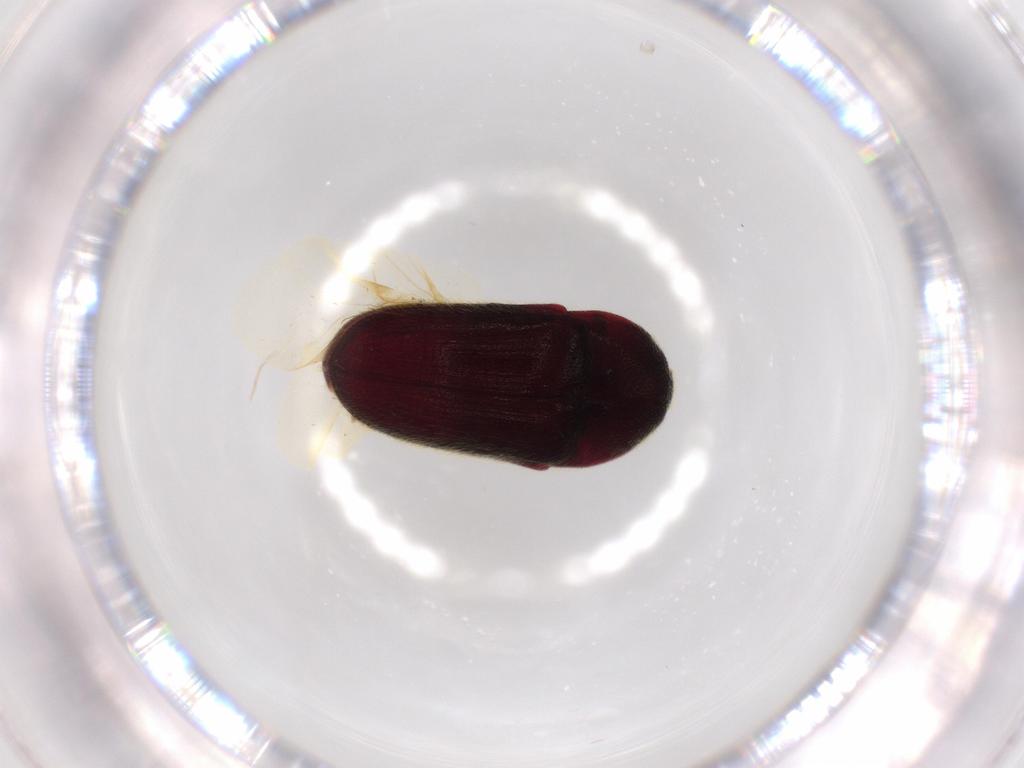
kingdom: Animalia
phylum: Arthropoda
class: Insecta
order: Coleoptera
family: Throscidae
